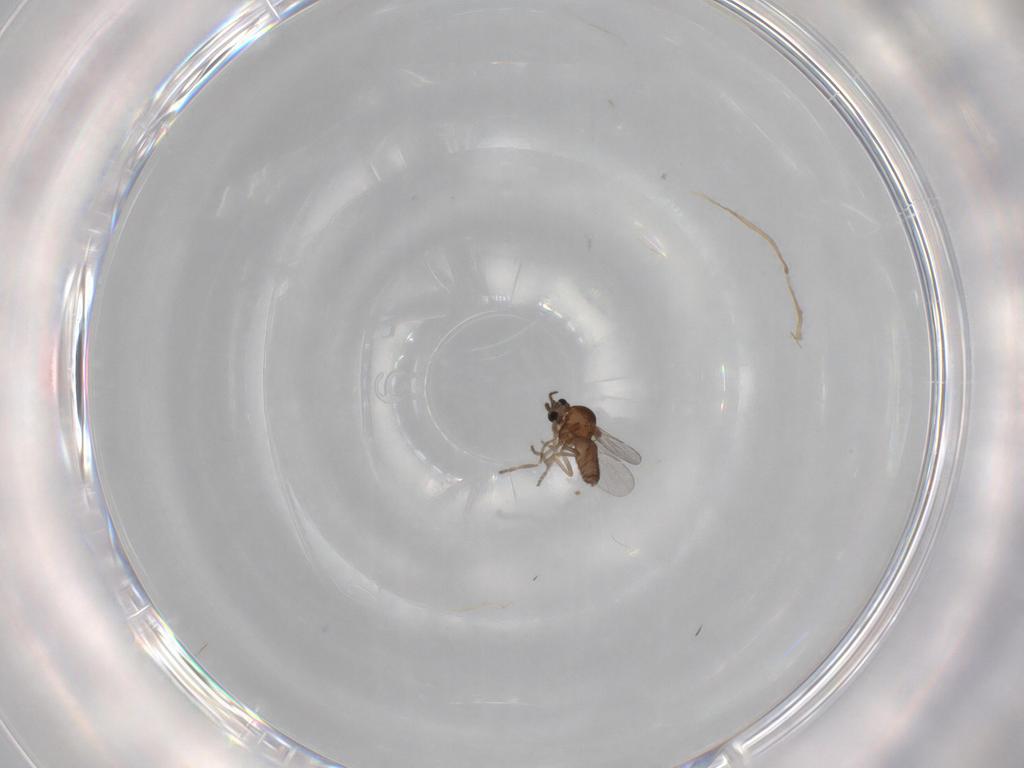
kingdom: Animalia
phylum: Arthropoda
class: Insecta
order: Diptera
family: Ceratopogonidae
